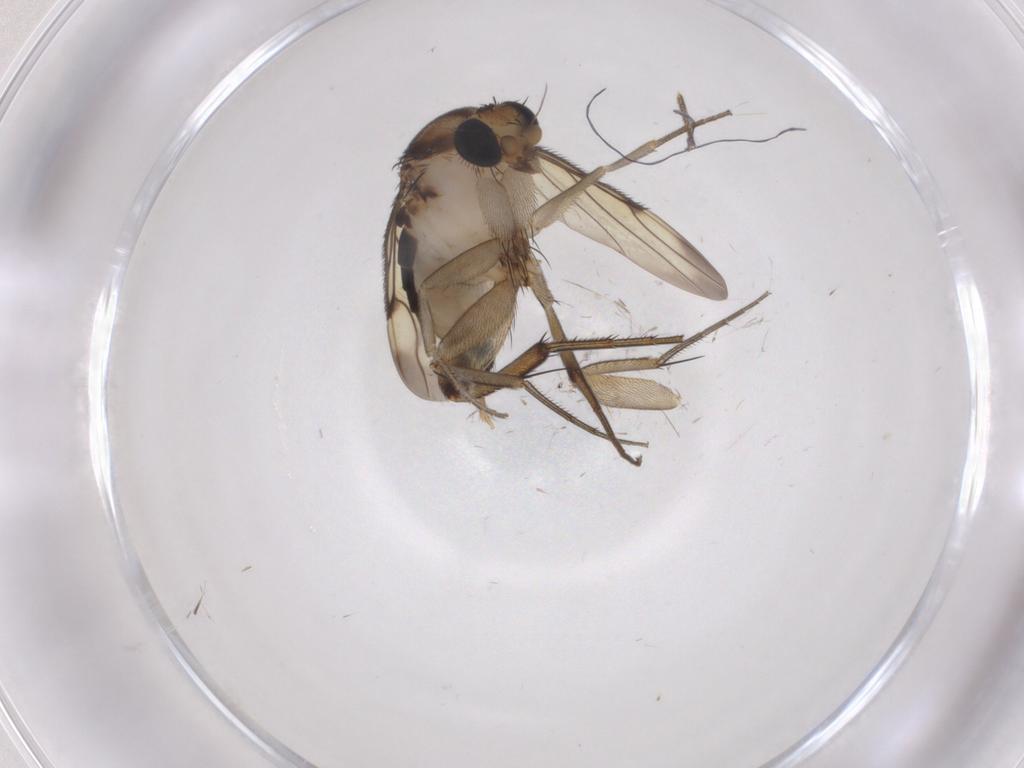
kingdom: Animalia
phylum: Arthropoda
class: Insecta
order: Diptera
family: Phoridae
